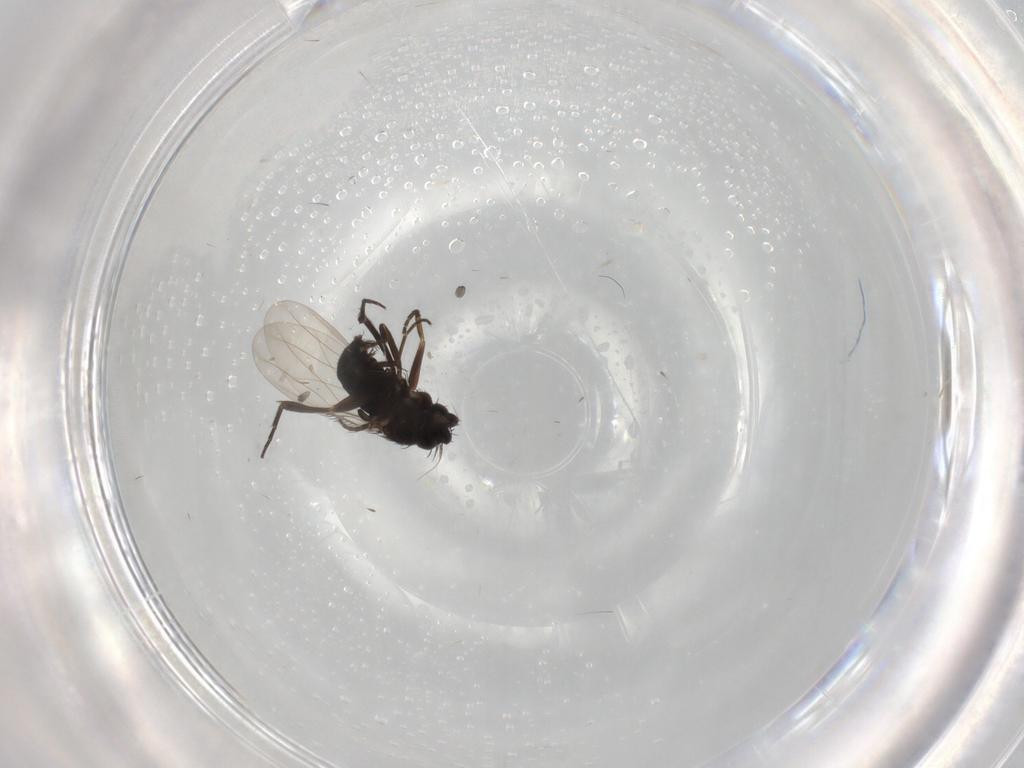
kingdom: Animalia
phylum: Arthropoda
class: Insecta
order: Diptera
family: Phoridae
